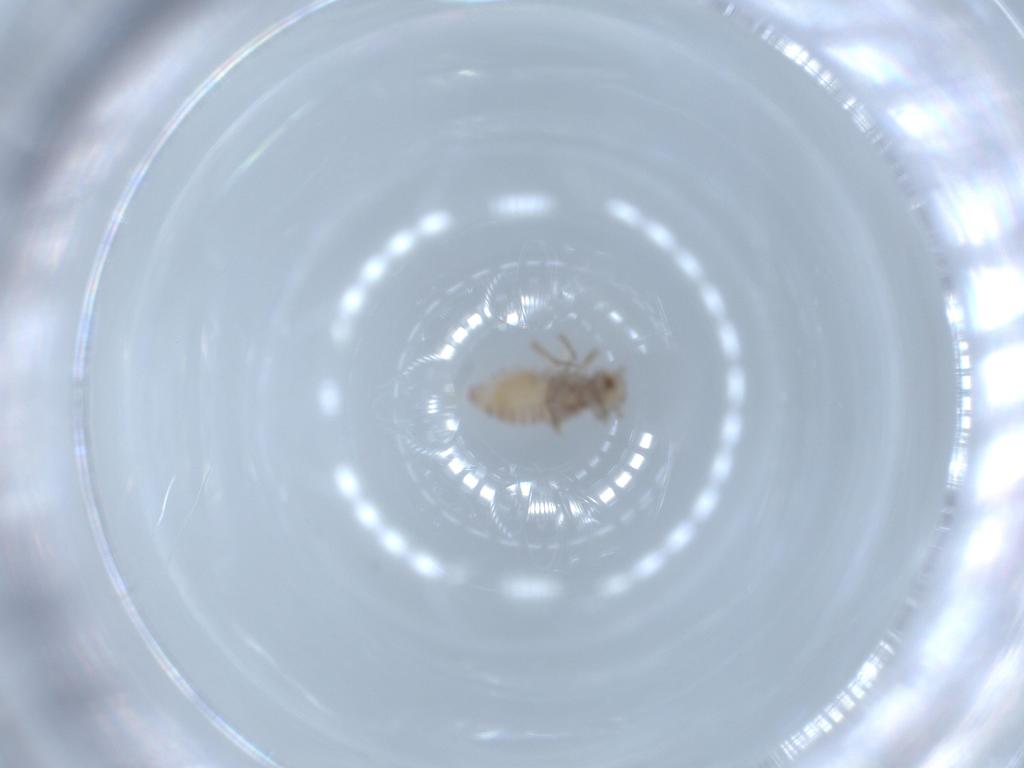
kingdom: Animalia
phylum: Arthropoda
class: Insecta
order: Psocodea
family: Caeciliusidae
